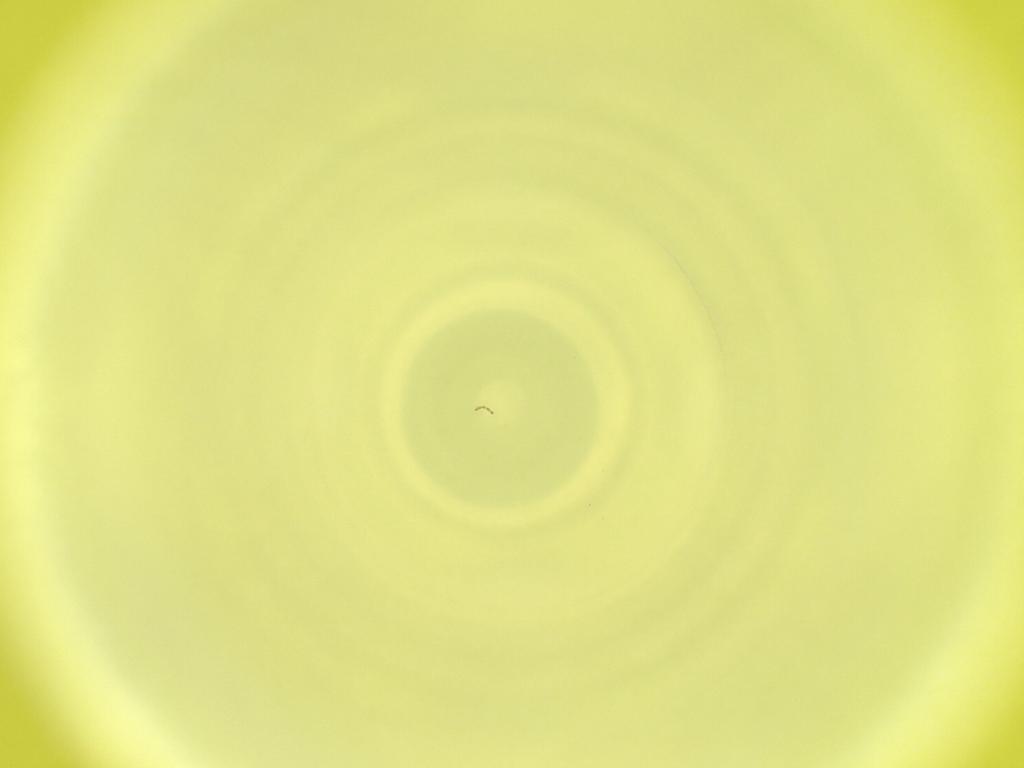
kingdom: Animalia
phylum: Arthropoda
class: Insecta
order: Diptera
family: Cecidomyiidae
